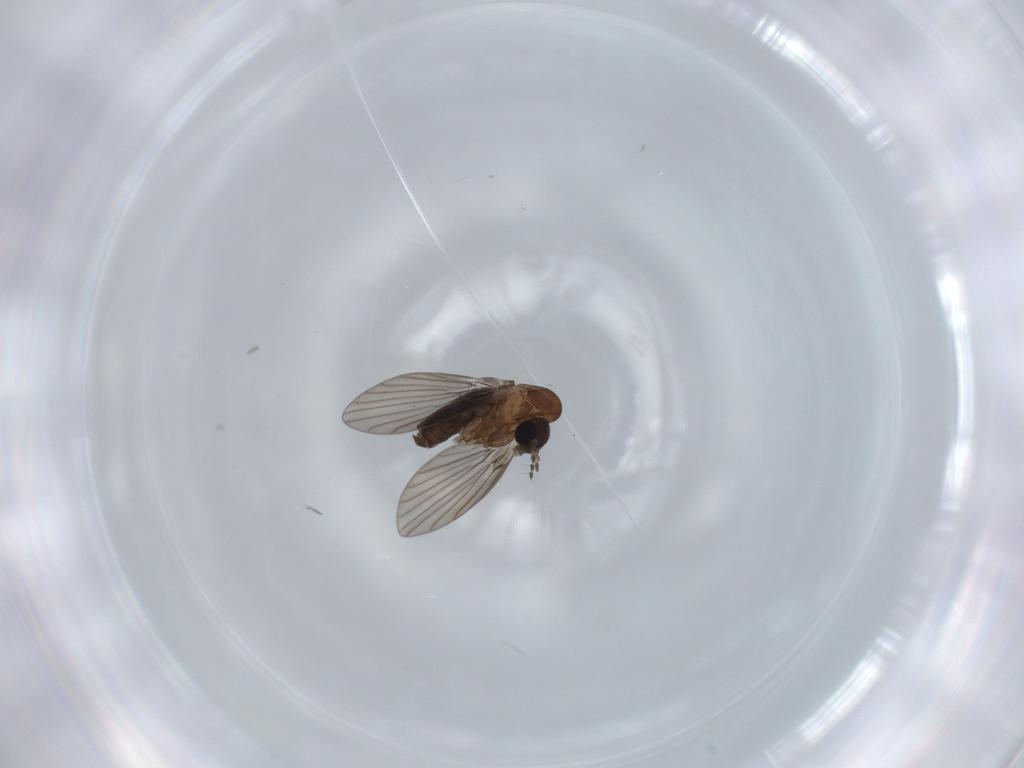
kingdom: Animalia
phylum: Arthropoda
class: Insecta
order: Diptera
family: Psychodidae
